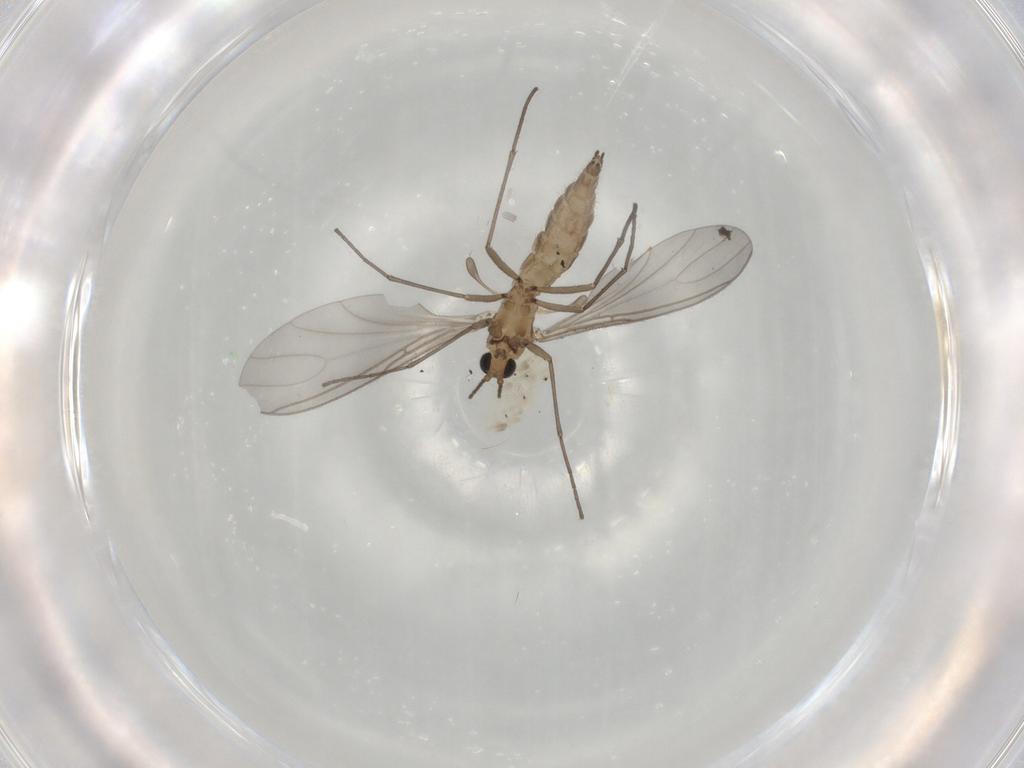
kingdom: Animalia
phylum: Arthropoda
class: Insecta
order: Diptera
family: Sciaridae
